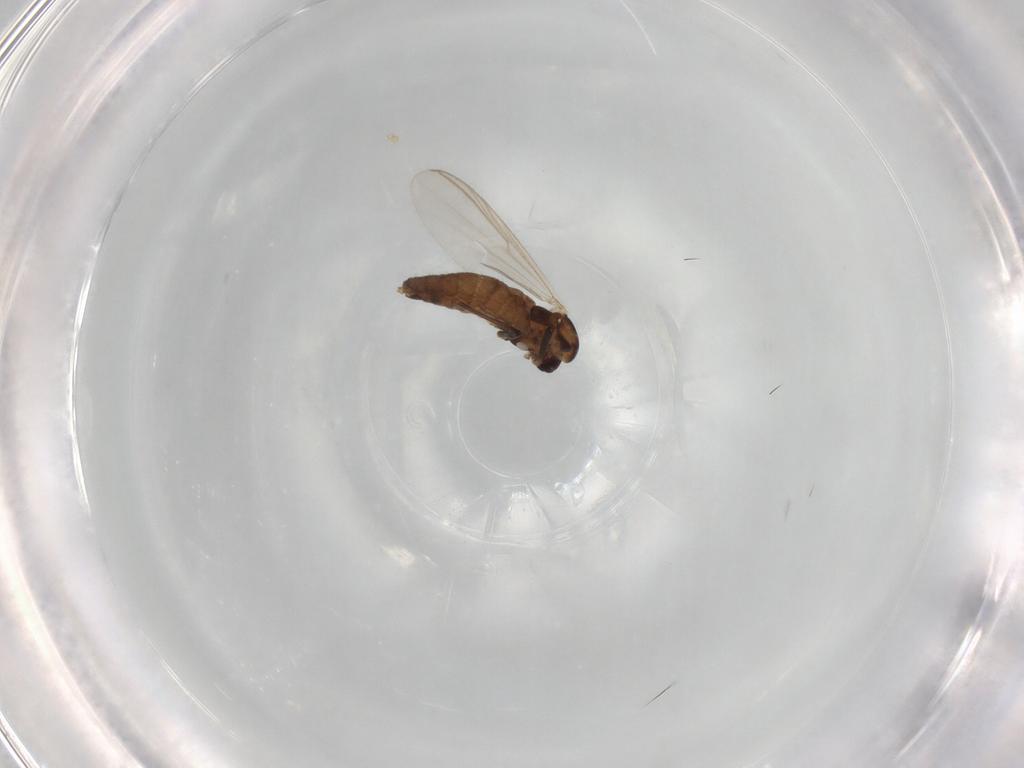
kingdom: Animalia
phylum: Arthropoda
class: Insecta
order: Diptera
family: Chironomidae
